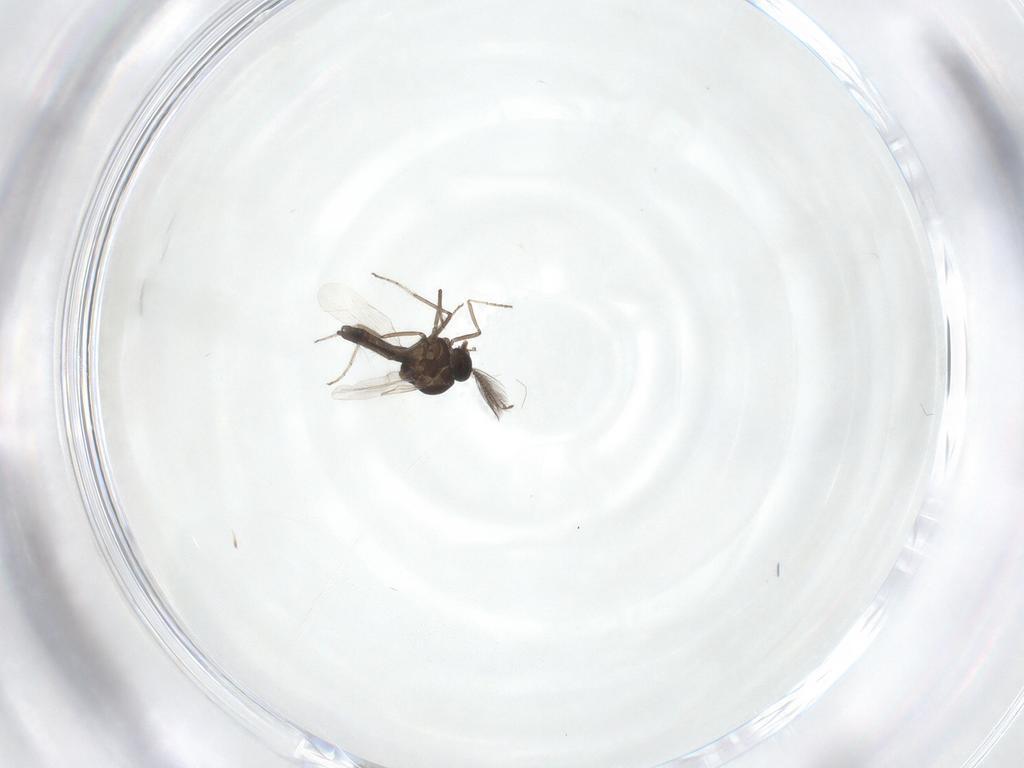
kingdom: Animalia
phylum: Arthropoda
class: Insecta
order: Diptera
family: Ceratopogonidae
